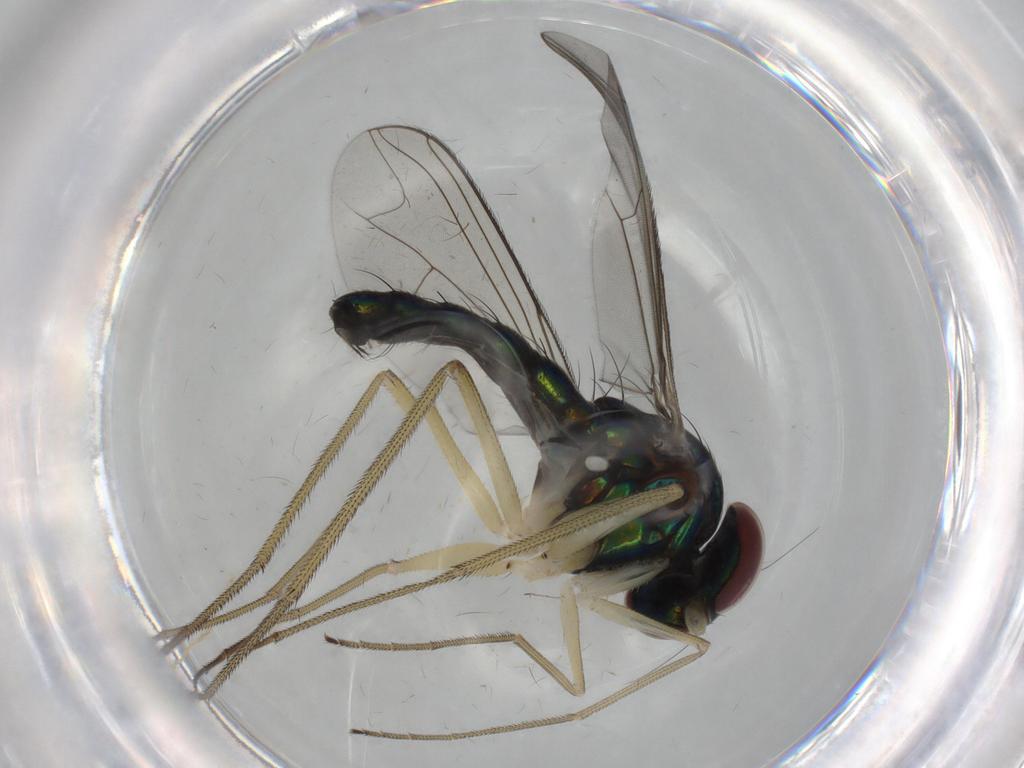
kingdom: Animalia
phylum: Arthropoda
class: Insecta
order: Diptera
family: Dolichopodidae
